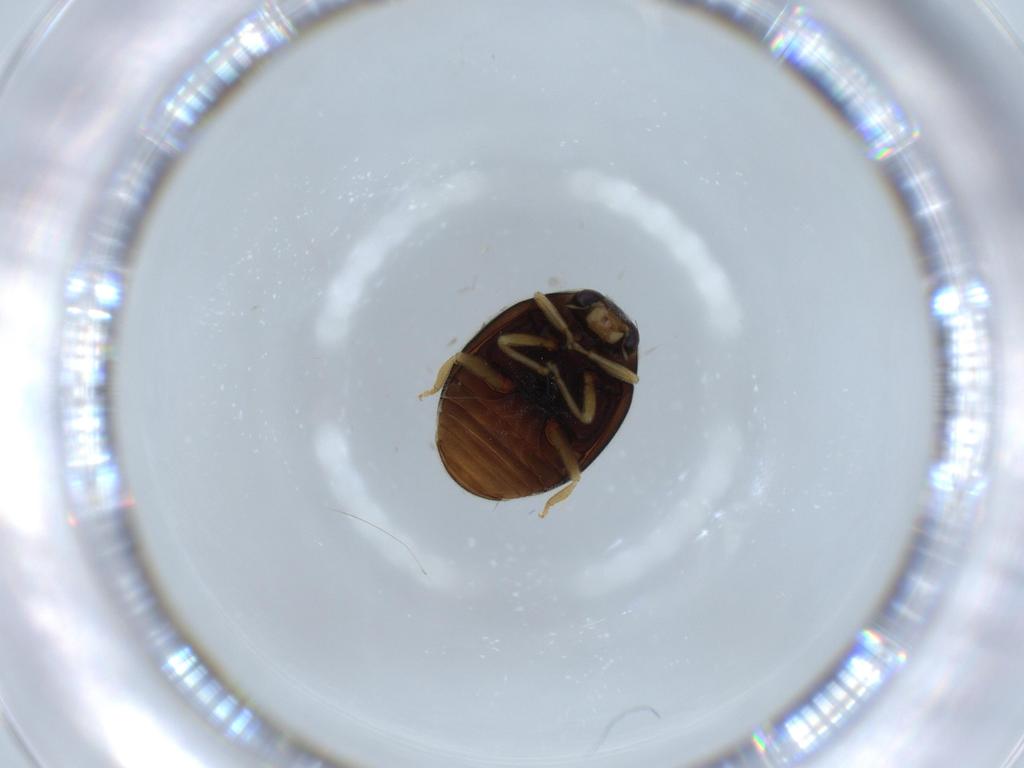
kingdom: Animalia
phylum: Arthropoda
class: Insecta
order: Coleoptera
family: Coccinellidae
